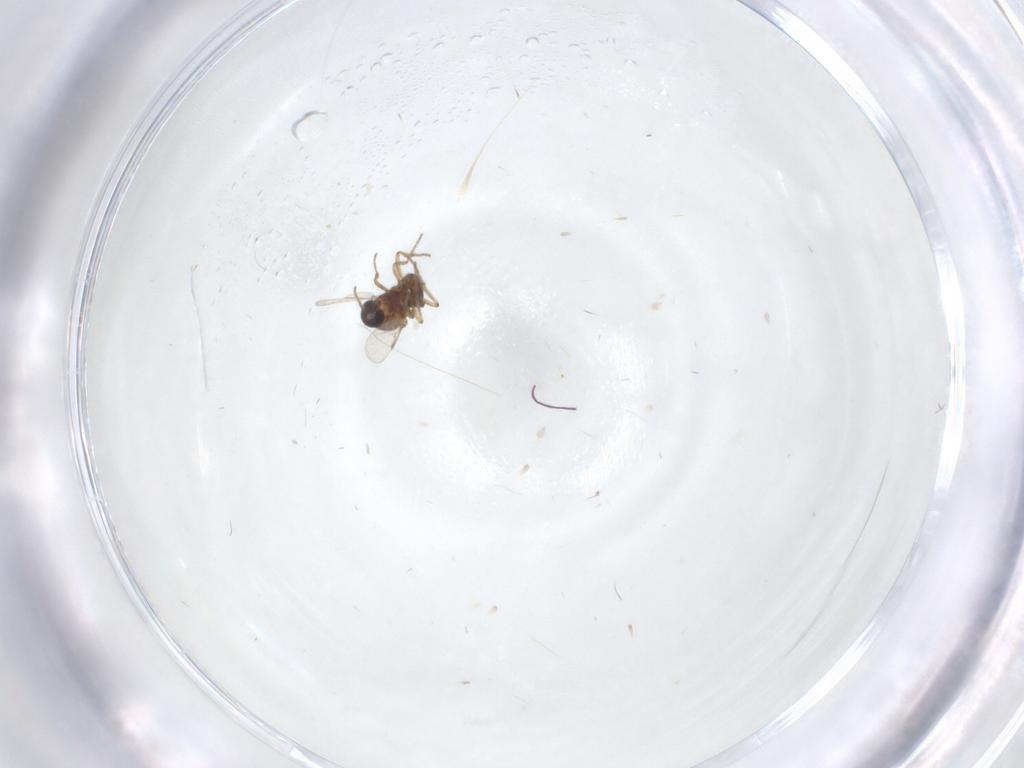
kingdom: Animalia
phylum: Arthropoda
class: Insecta
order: Diptera
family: Ceratopogonidae
